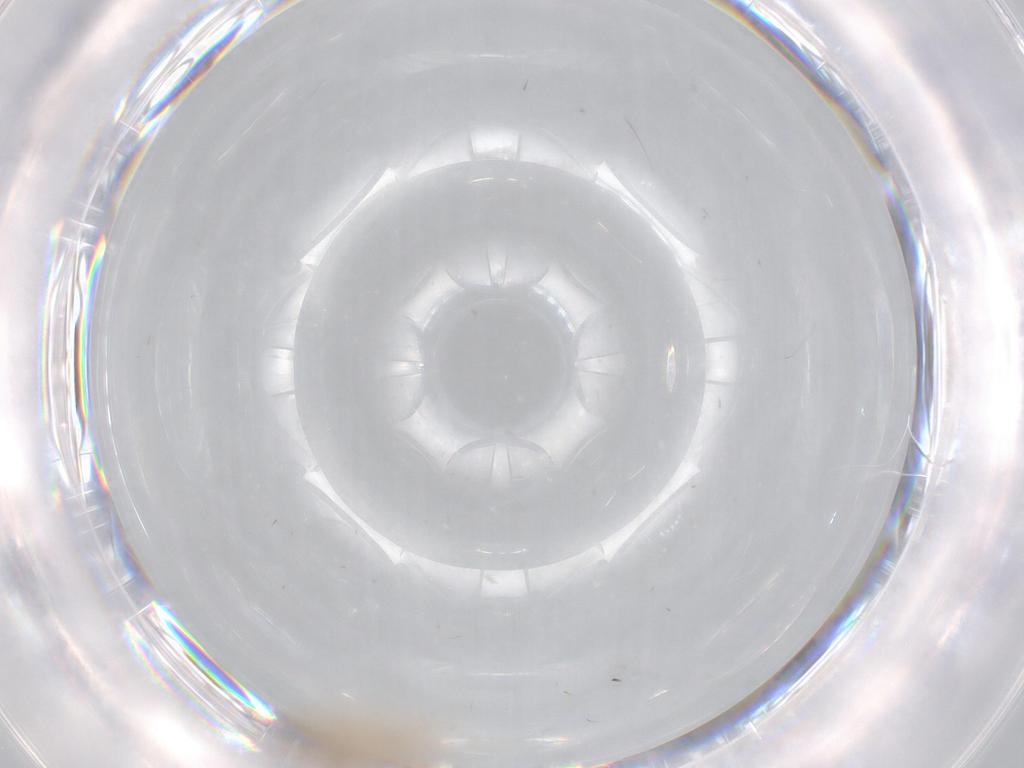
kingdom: Animalia
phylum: Arthropoda
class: Insecta
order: Diptera
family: Cecidomyiidae
